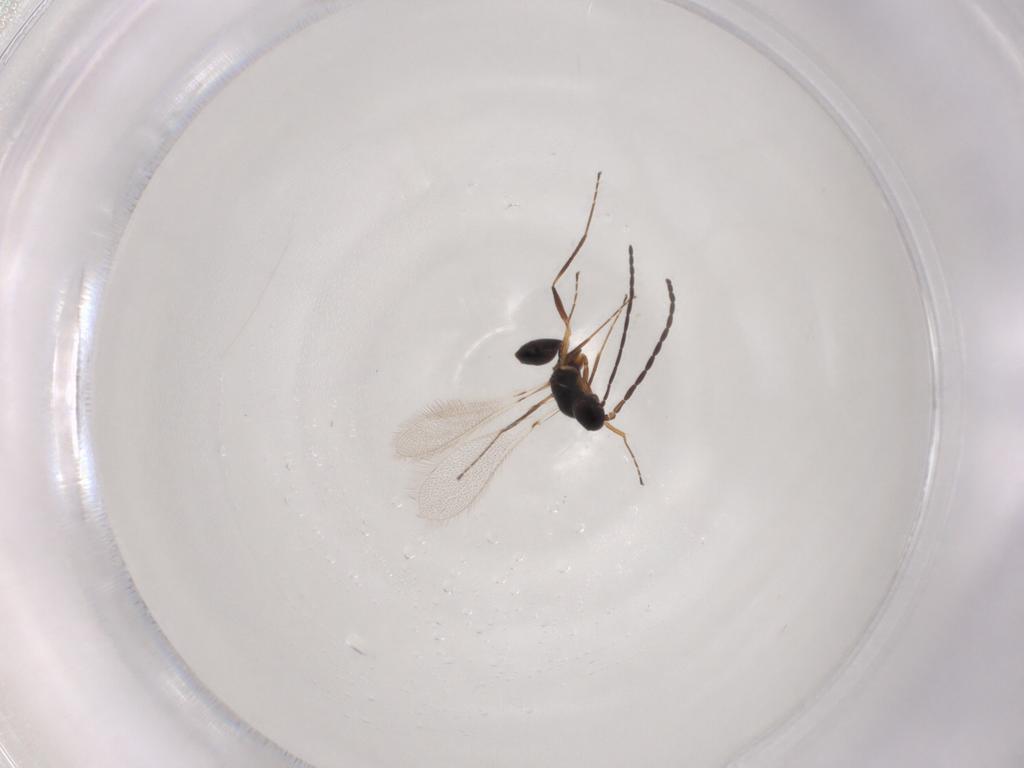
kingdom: Animalia
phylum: Arthropoda
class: Insecta
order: Hymenoptera
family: Mymaridae
